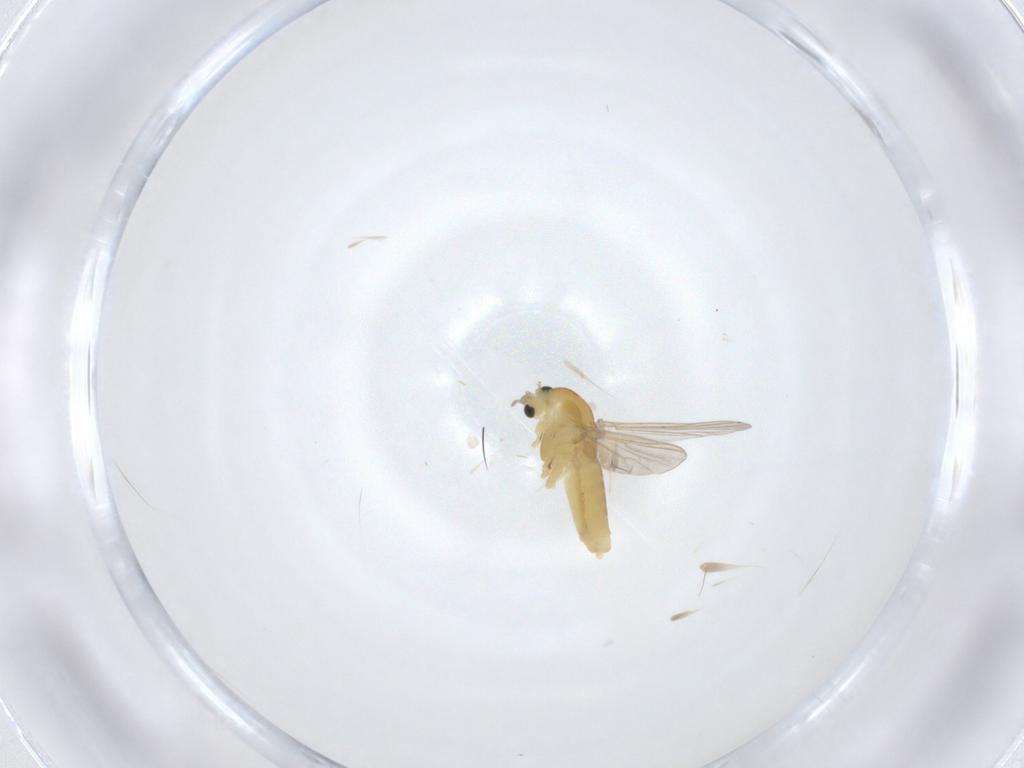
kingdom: Animalia
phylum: Arthropoda
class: Insecta
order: Diptera
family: Chironomidae
